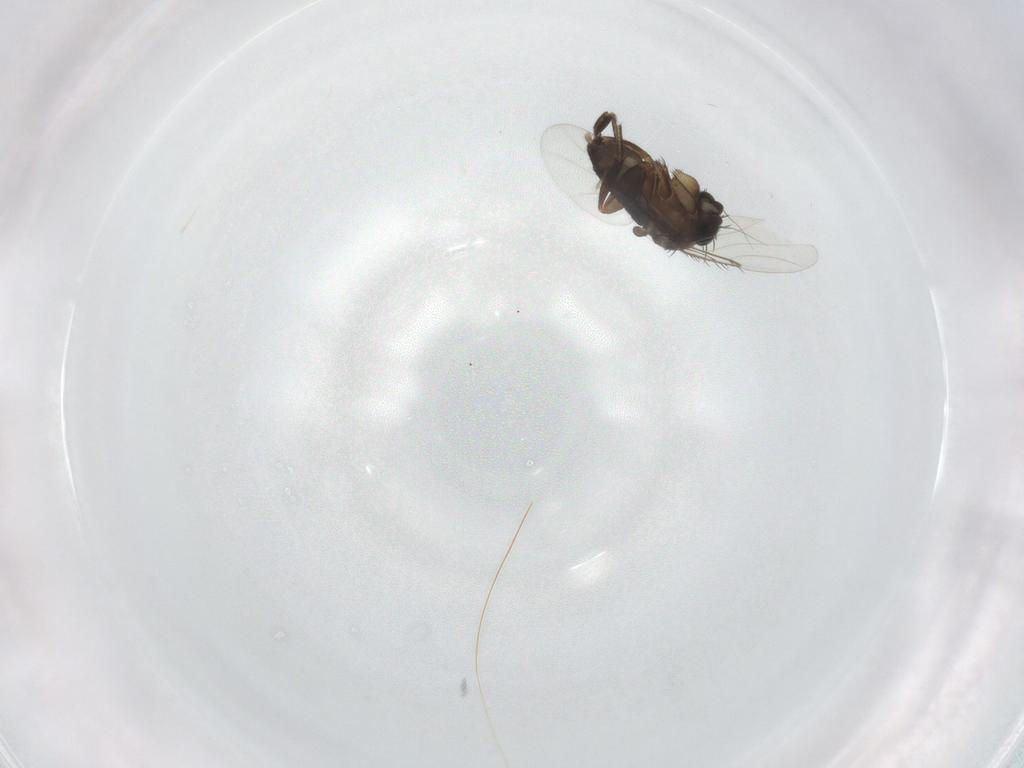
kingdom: Animalia
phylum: Arthropoda
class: Insecta
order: Diptera
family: Phoridae
